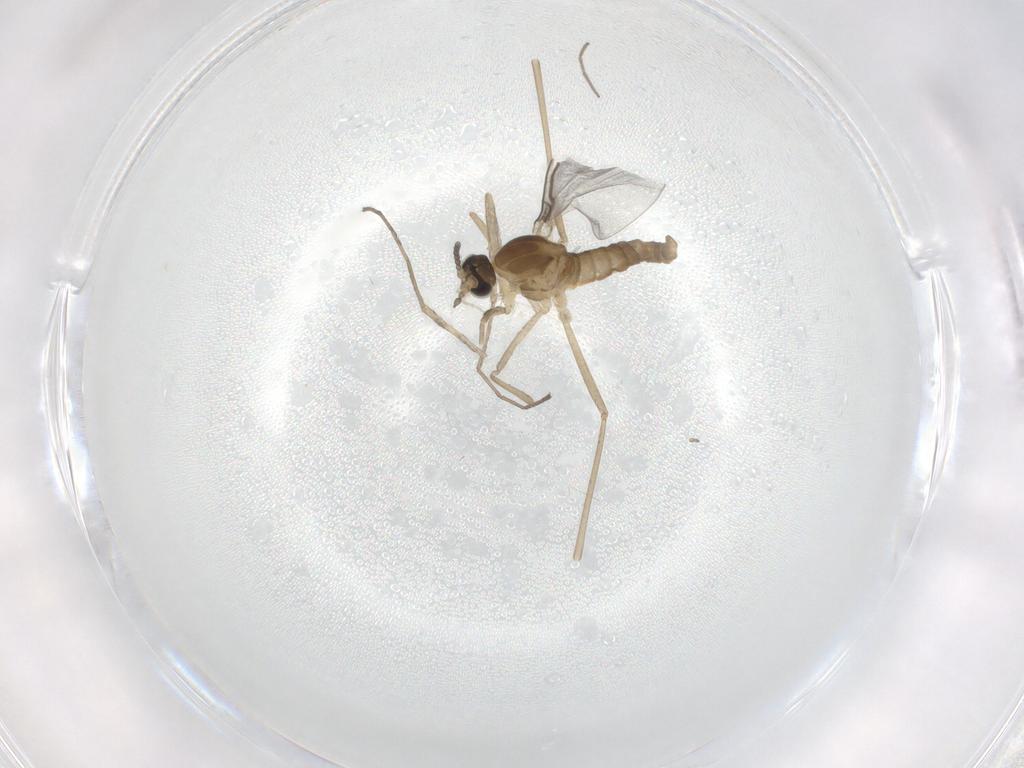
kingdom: Animalia
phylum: Arthropoda
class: Insecta
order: Diptera
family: Cecidomyiidae
